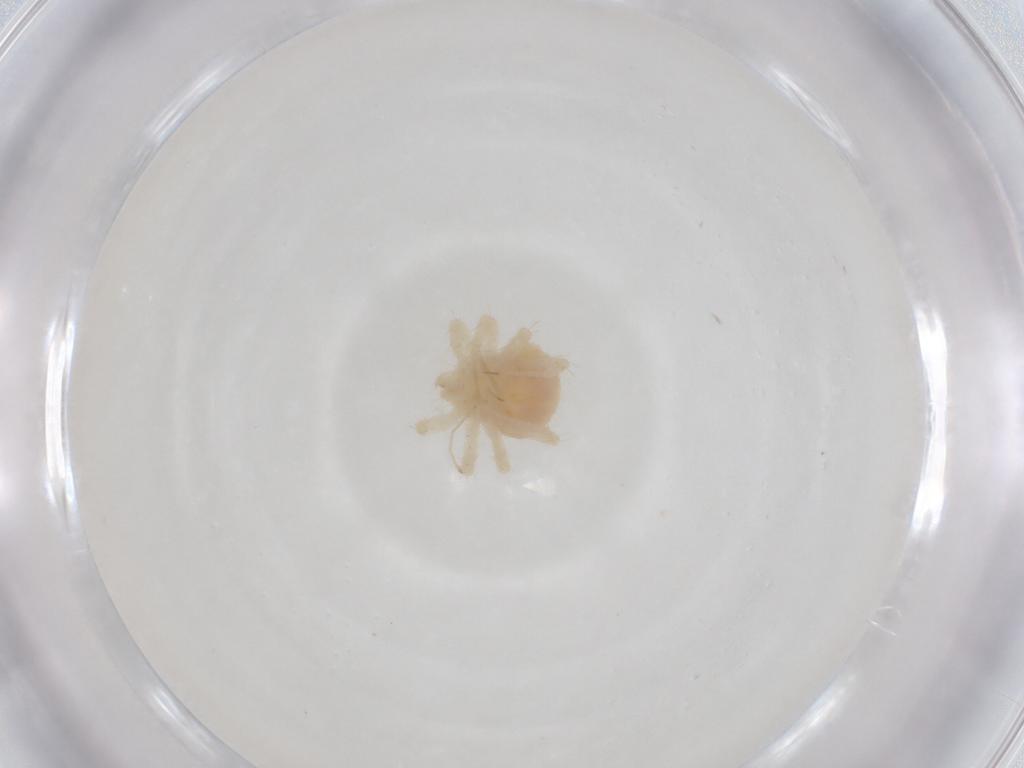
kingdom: Animalia
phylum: Arthropoda
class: Arachnida
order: Trombidiformes
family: Anystidae
